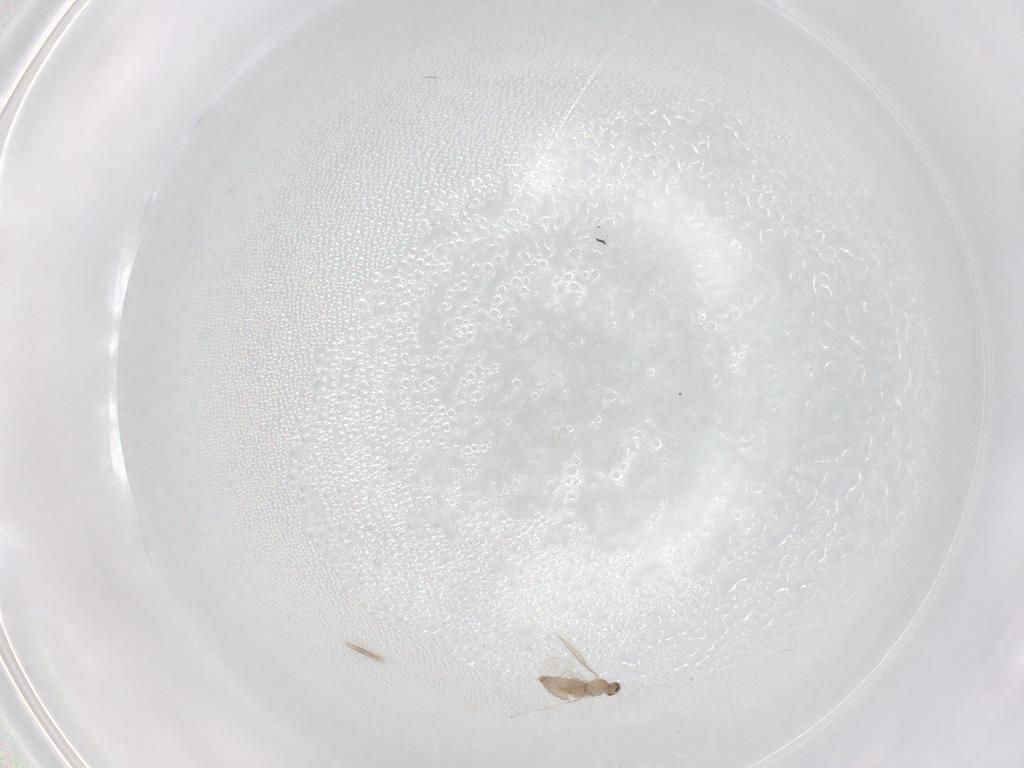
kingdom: Animalia
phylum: Arthropoda
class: Insecta
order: Diptera
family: Cecidomyiidae
